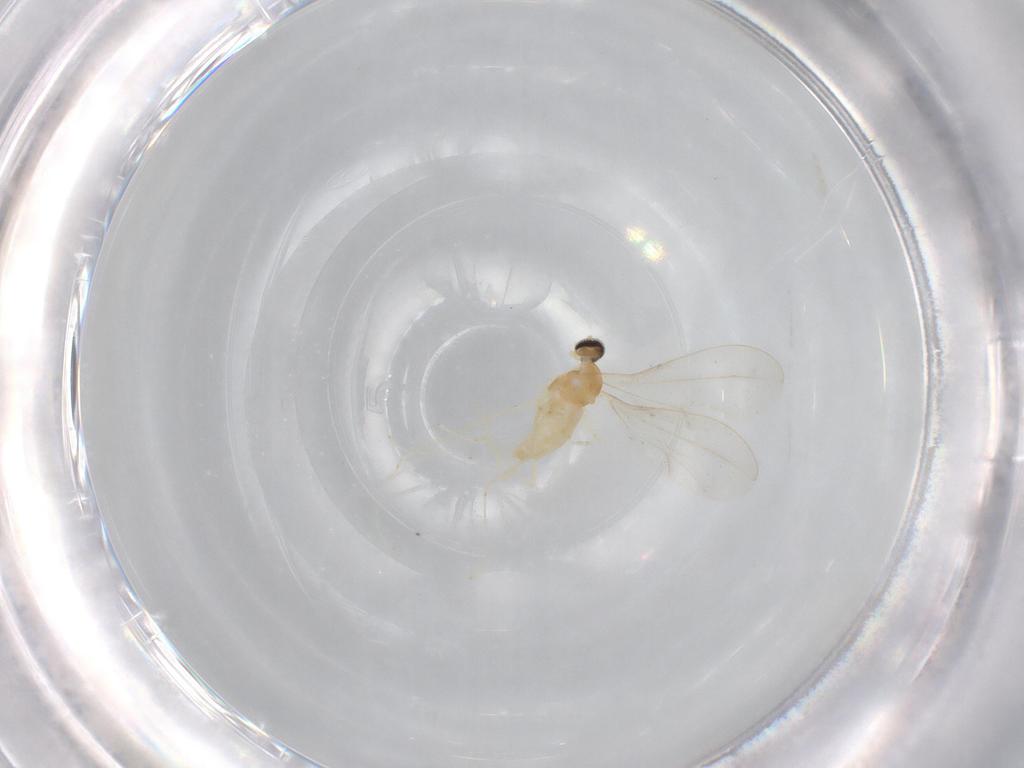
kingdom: Animalia
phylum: Arthropoda
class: Insecta
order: Diptera
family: Cecidomyiidae
